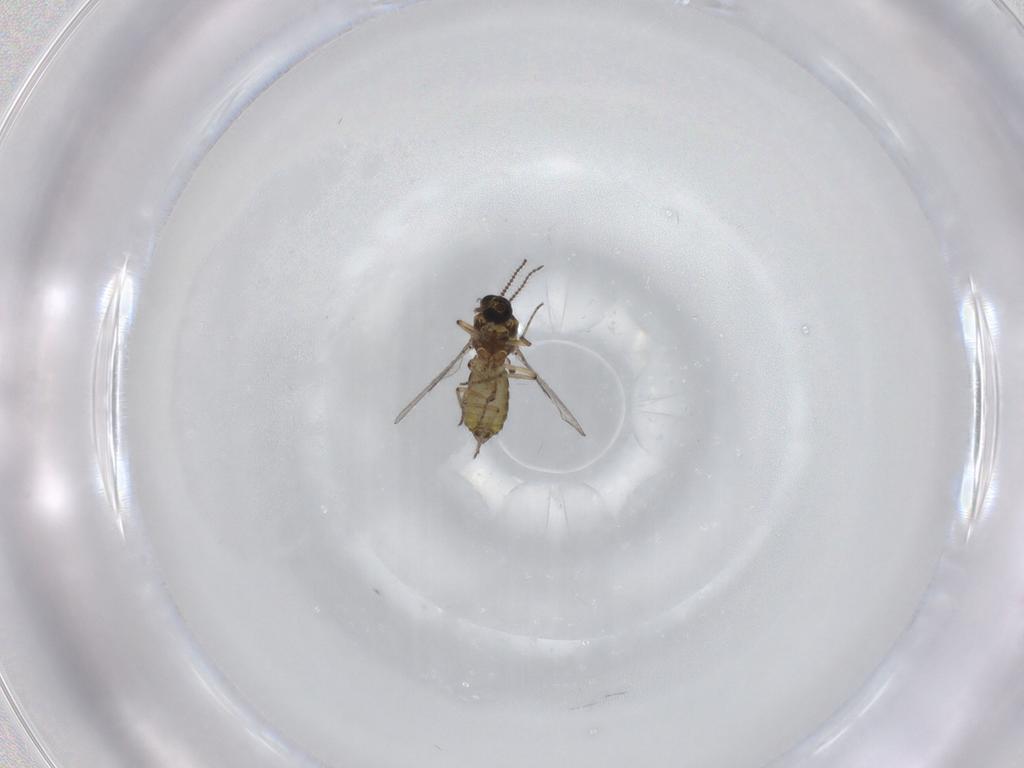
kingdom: Animalia
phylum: Arthropoda
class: Insecta
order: Diptera
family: Ceratopogonidae
